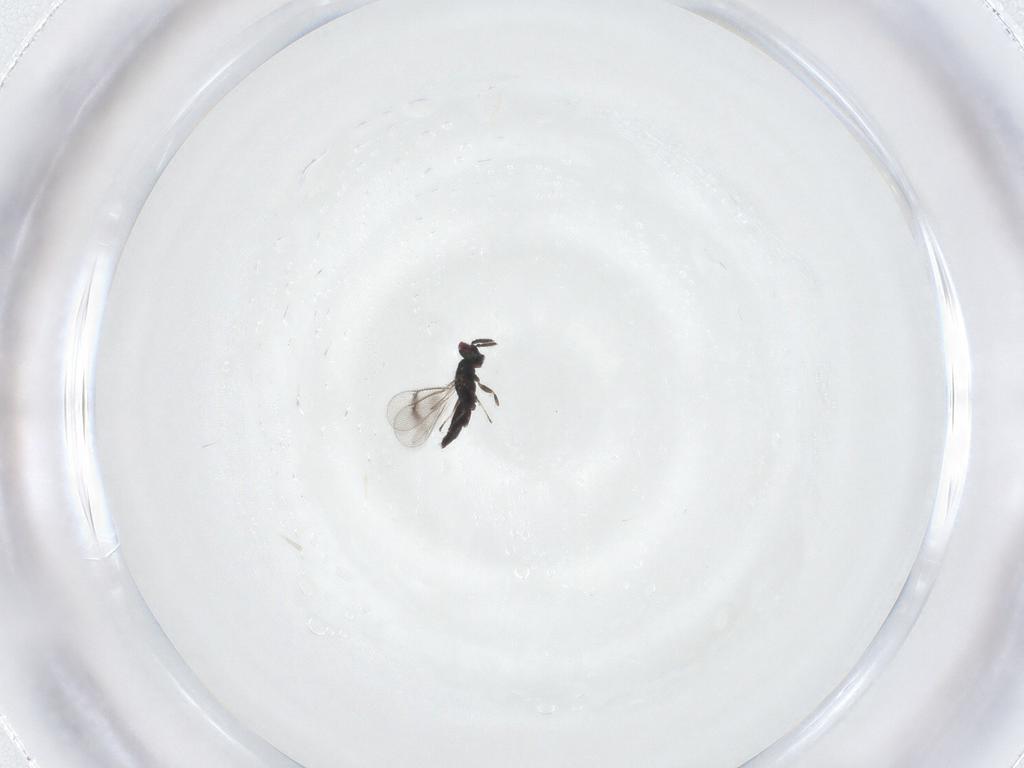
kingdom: Animalia
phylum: Arthropoda
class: Insecta
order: Hymenoptera
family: Eulophidae
